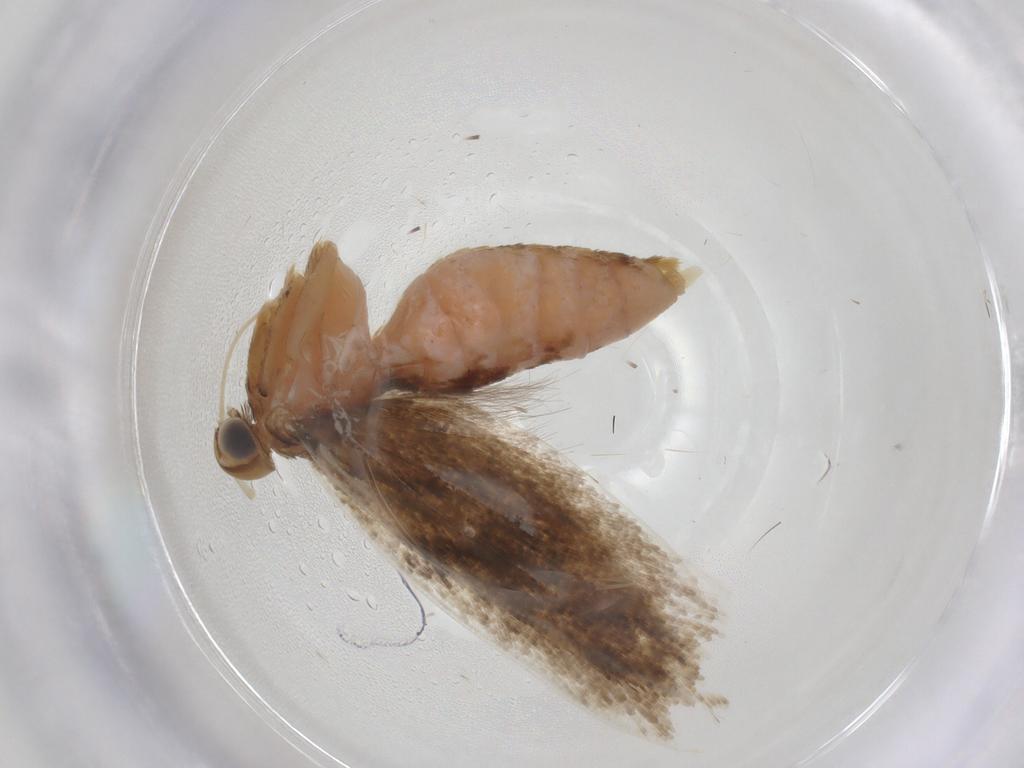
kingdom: Animalia
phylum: Arthropoda
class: Insecta
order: Lepidoptera
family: Gelechiidae
